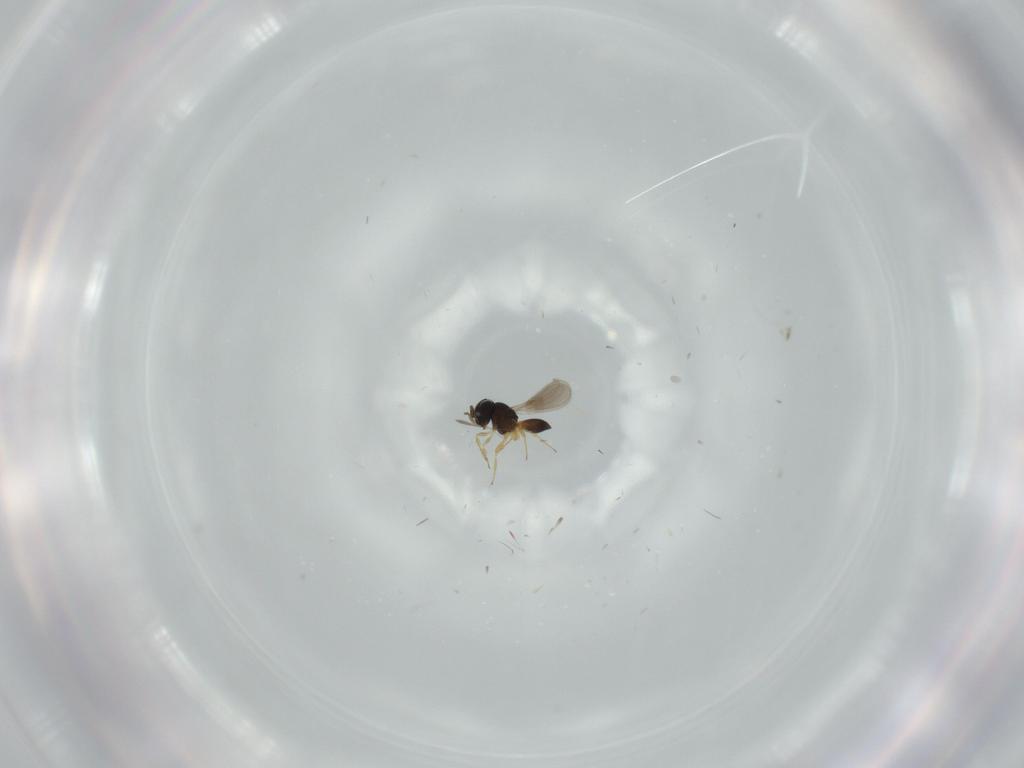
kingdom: Animalia
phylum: Arthropoda
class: Insecta
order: Hymenoptera
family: Scelionidae
